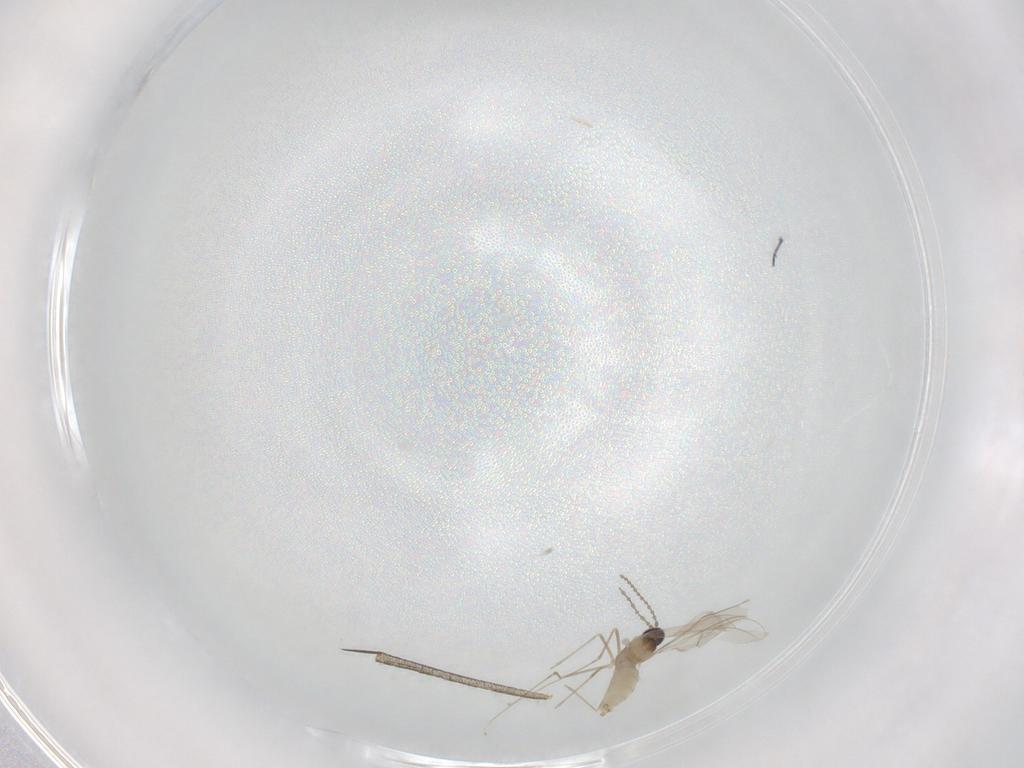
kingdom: Animalia
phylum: Arthropoda
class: Insecta
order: Diptera
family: Cecidomyiidae
